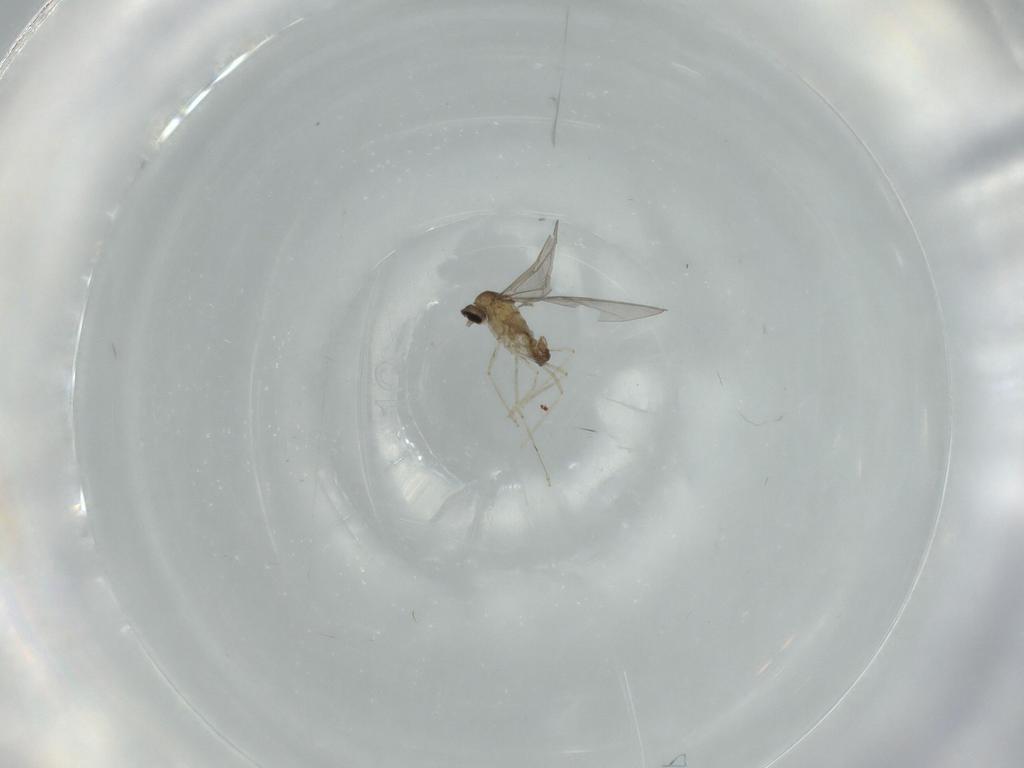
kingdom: Animalia
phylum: Arthropoda
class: Insecta
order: Diptera
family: Cecidomyiidae
